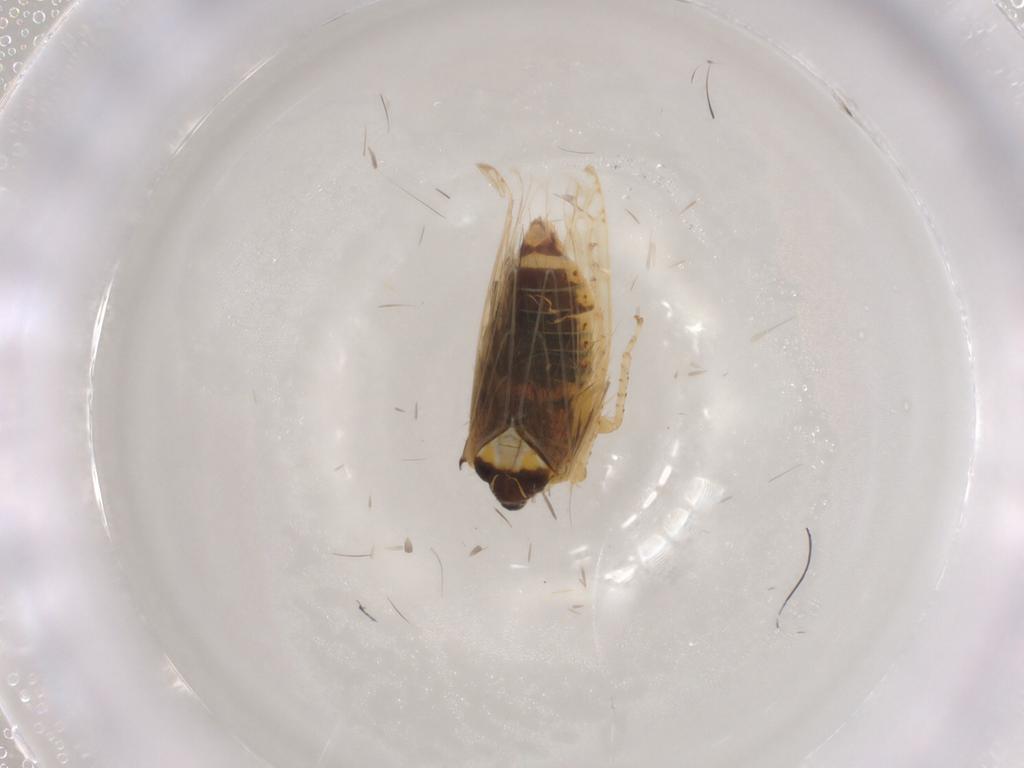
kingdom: Animalia
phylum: Arthropoda
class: Insecta
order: Hemiptera
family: Cicadellidae
